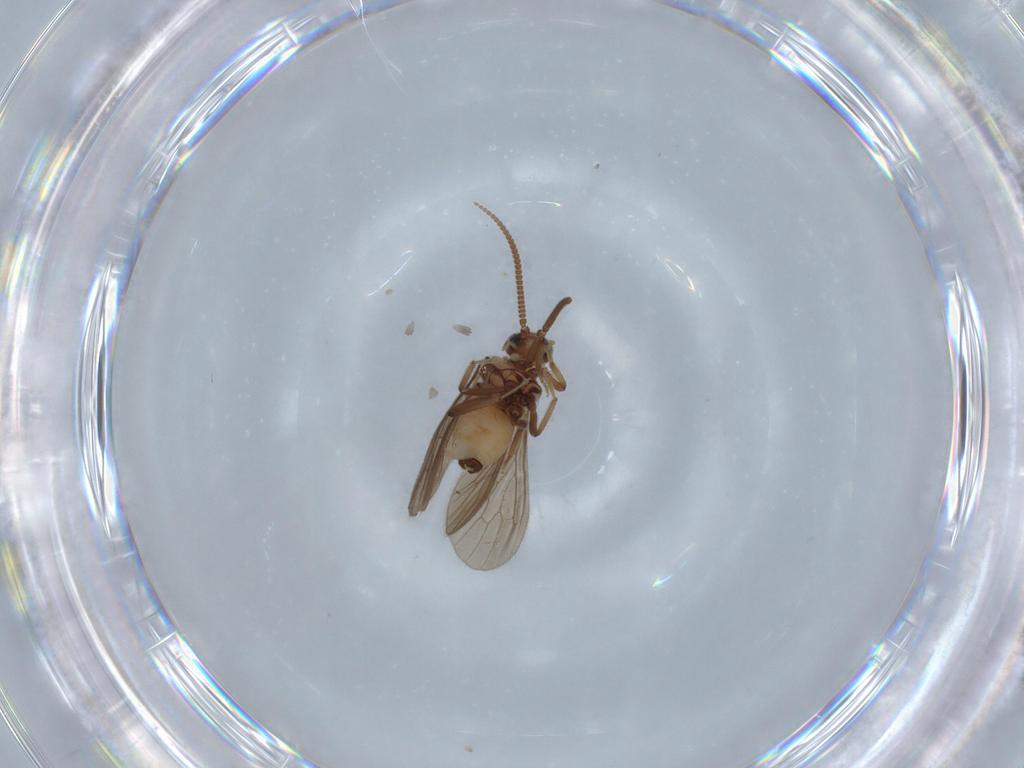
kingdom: Animalia
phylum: Arthropoda
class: Insecta
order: Neuroptera
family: Coniopterygidae
